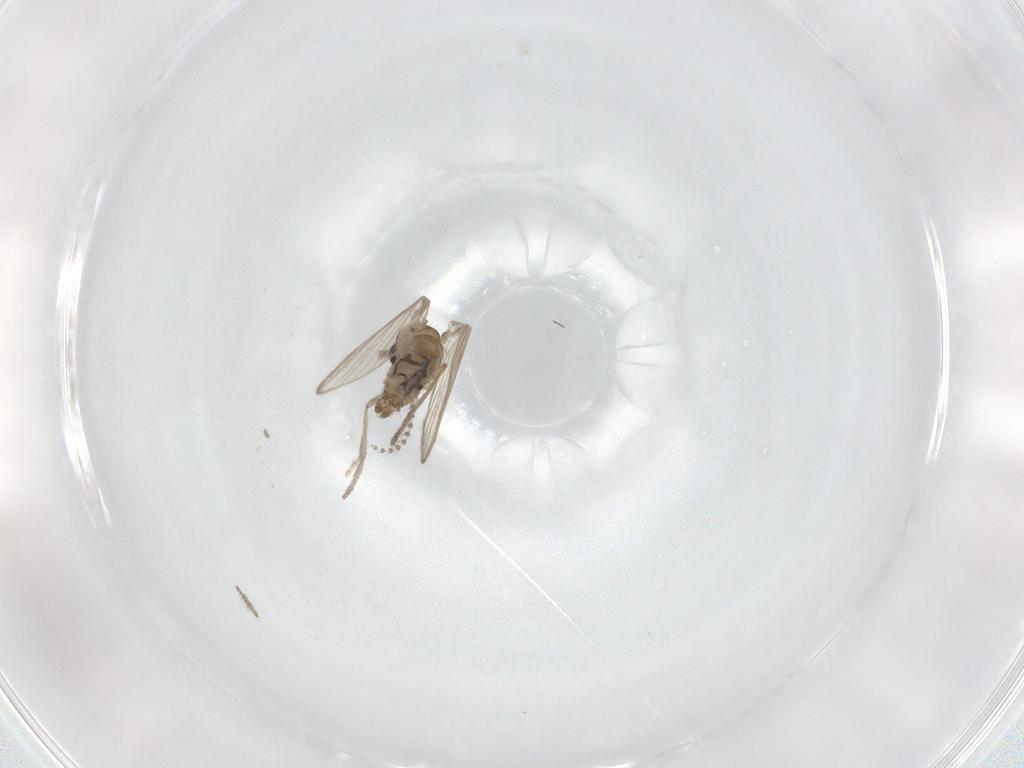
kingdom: Animalia
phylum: Arthropoda
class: Insecta
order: Diptera
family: Psychodidae
